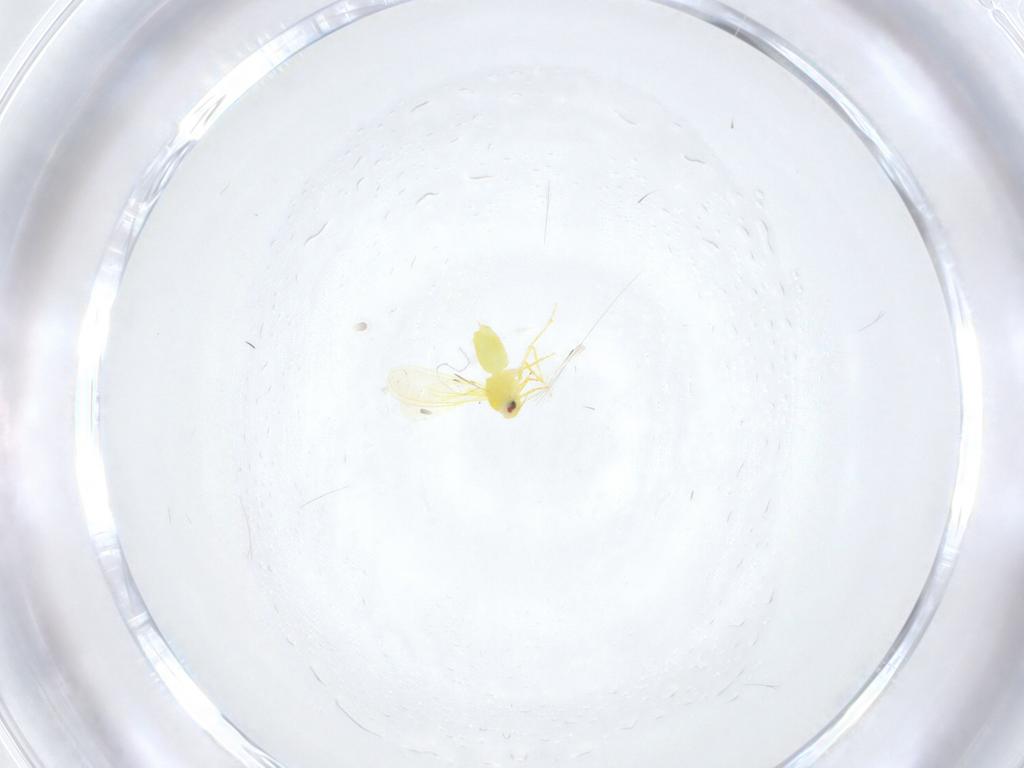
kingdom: Animalia
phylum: Arthropoda
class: Insecta
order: Hemiptera
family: Aleyrodidae
